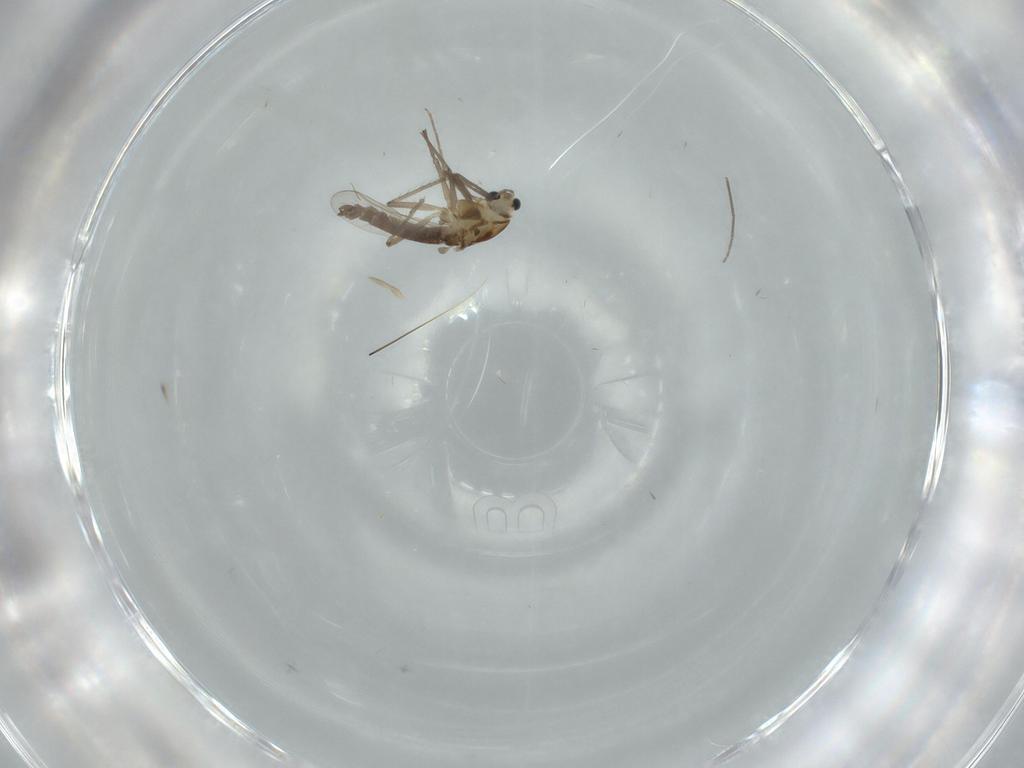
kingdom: Animalia
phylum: Arthropoda
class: Insecta
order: Diptera
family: Chironomidae
